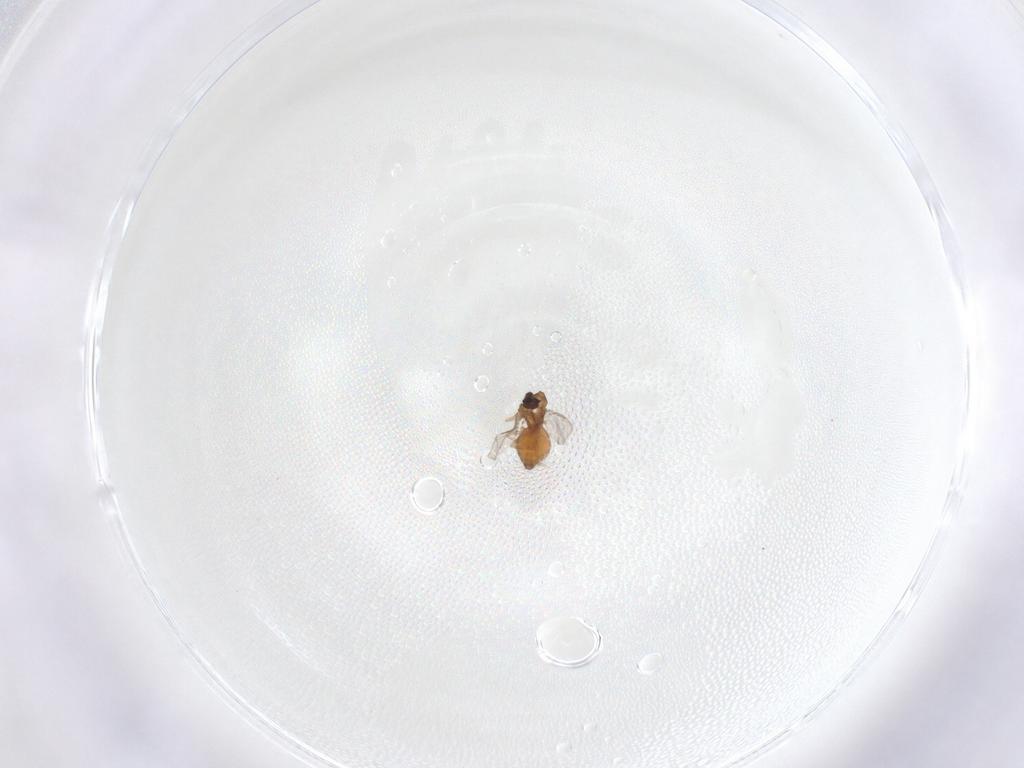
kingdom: Animalia
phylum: Arthropoda
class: Insecta
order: Diptera
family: Ceratopogonidae
